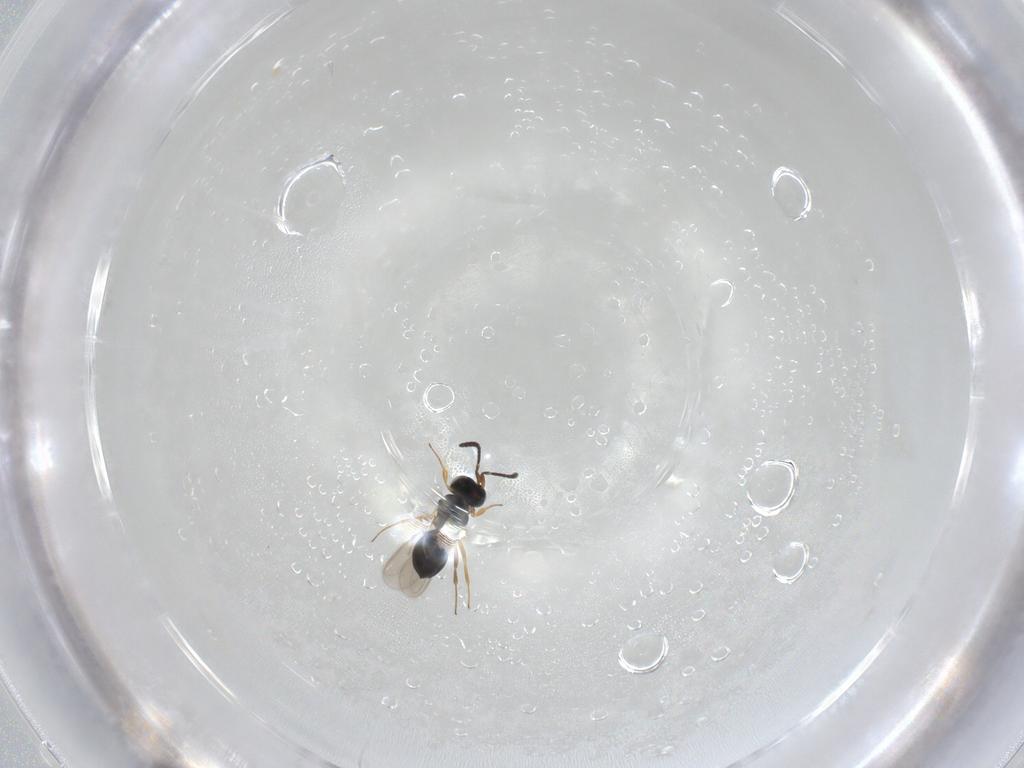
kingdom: Animalia
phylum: Arthropoda
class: Insecta
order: Hymenoptera
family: Scelionidae
